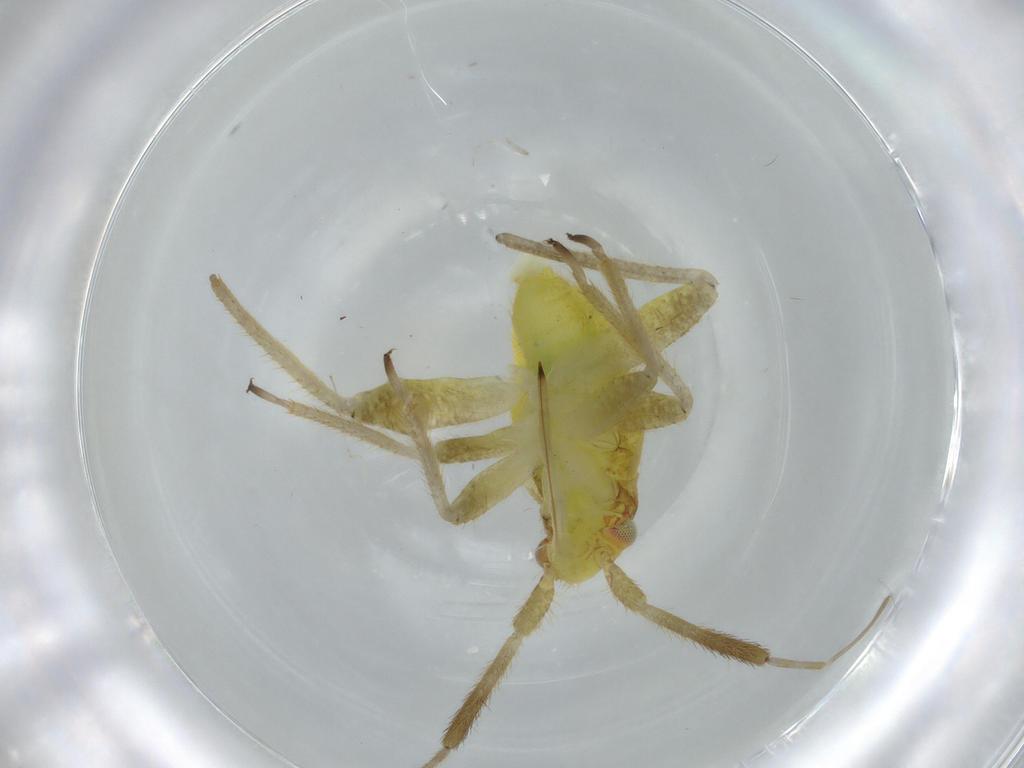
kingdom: Animalia
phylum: Arthropoda
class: Insecta
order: Hemiptera
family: Miridae
